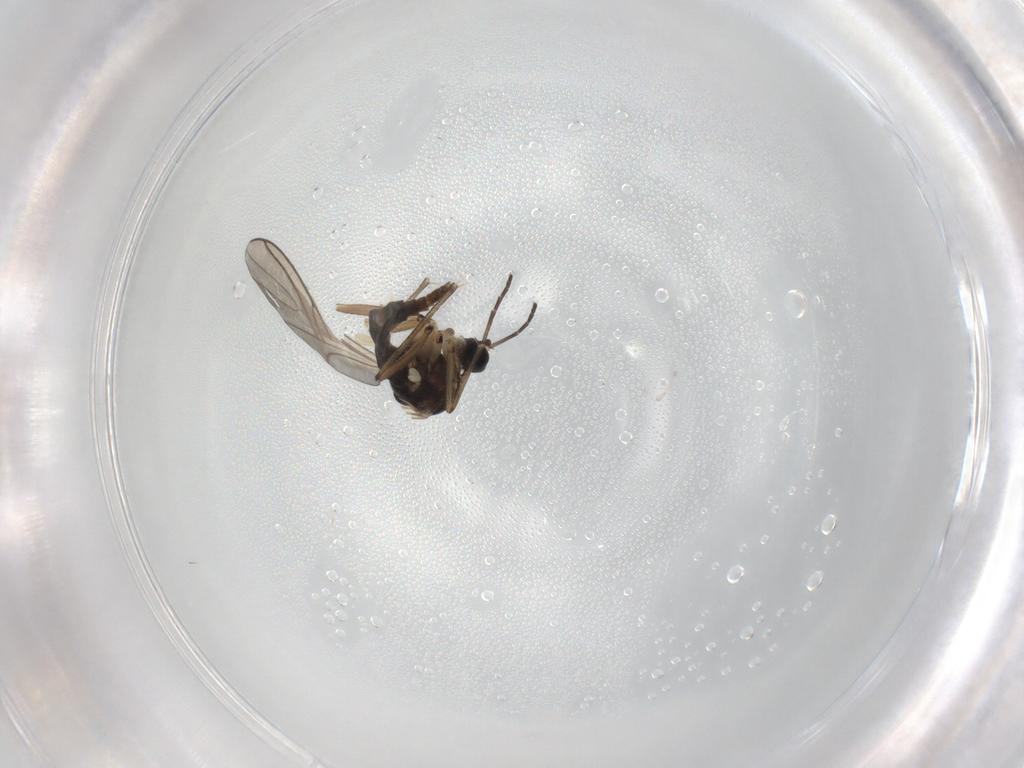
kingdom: Animalia
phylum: Arthropoda
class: Insecta
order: Diptera
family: Sciaridae
